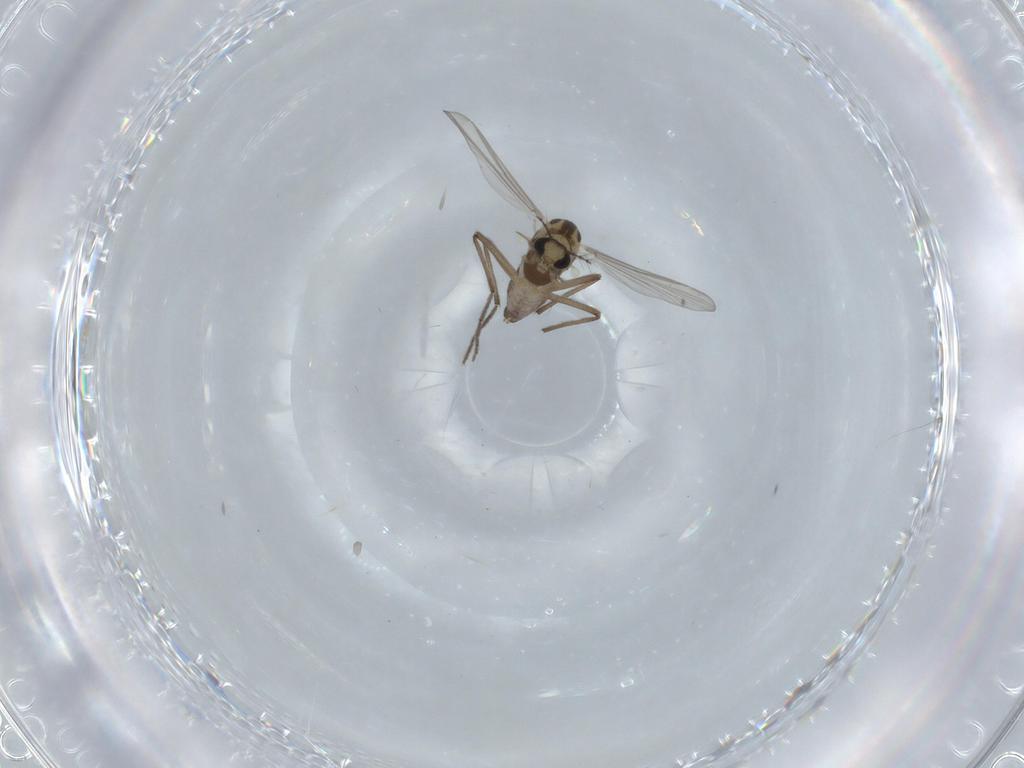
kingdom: Animalia
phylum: Arthropoda
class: Insecta
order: Diptera
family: Chironomidae
